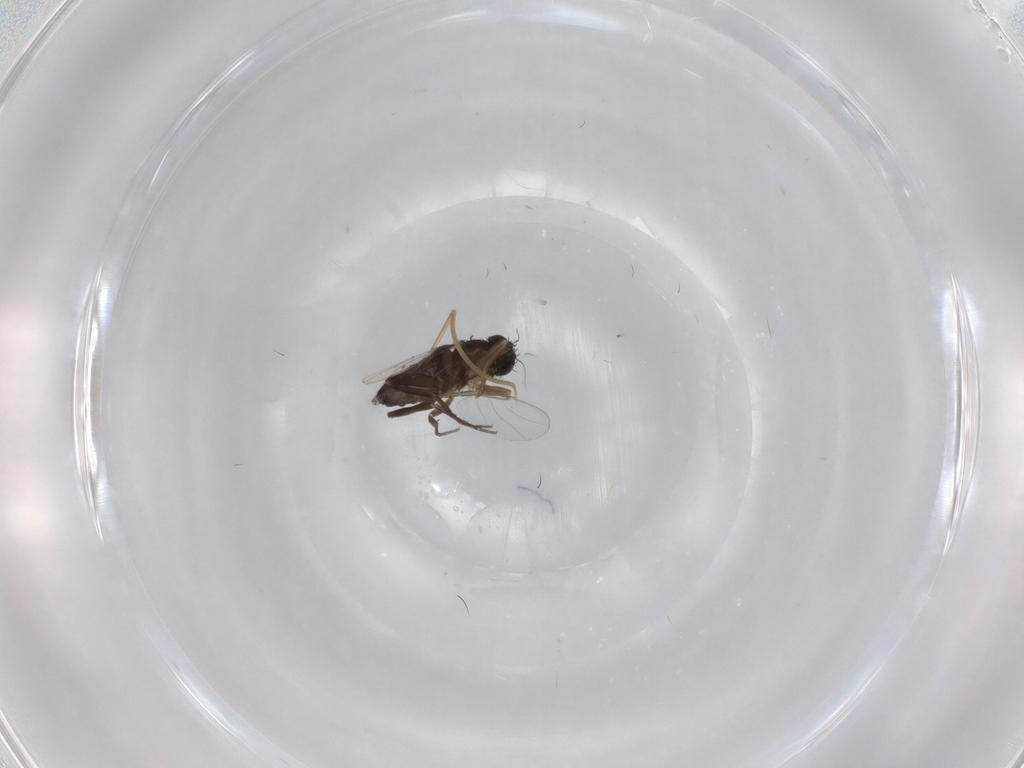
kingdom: Animalia
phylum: Arthropoda
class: Insecta
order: Diptera
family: Phoridae
